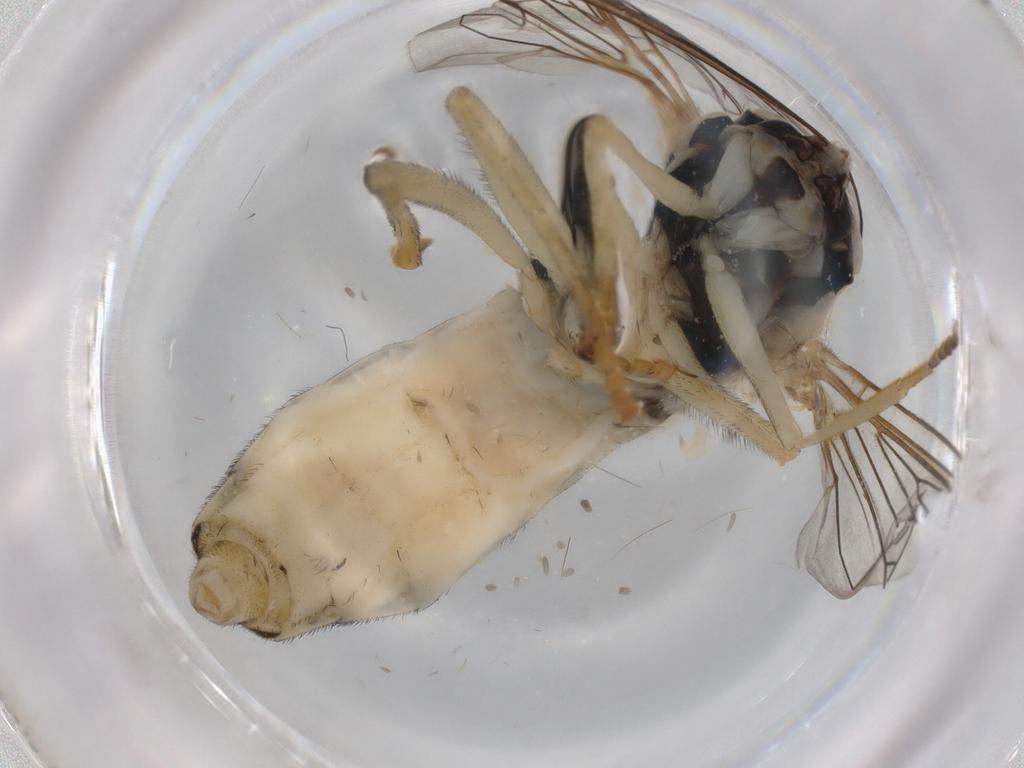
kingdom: Animalia
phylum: Arthropoda
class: Insecta
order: Diptera
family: Syrphidae
